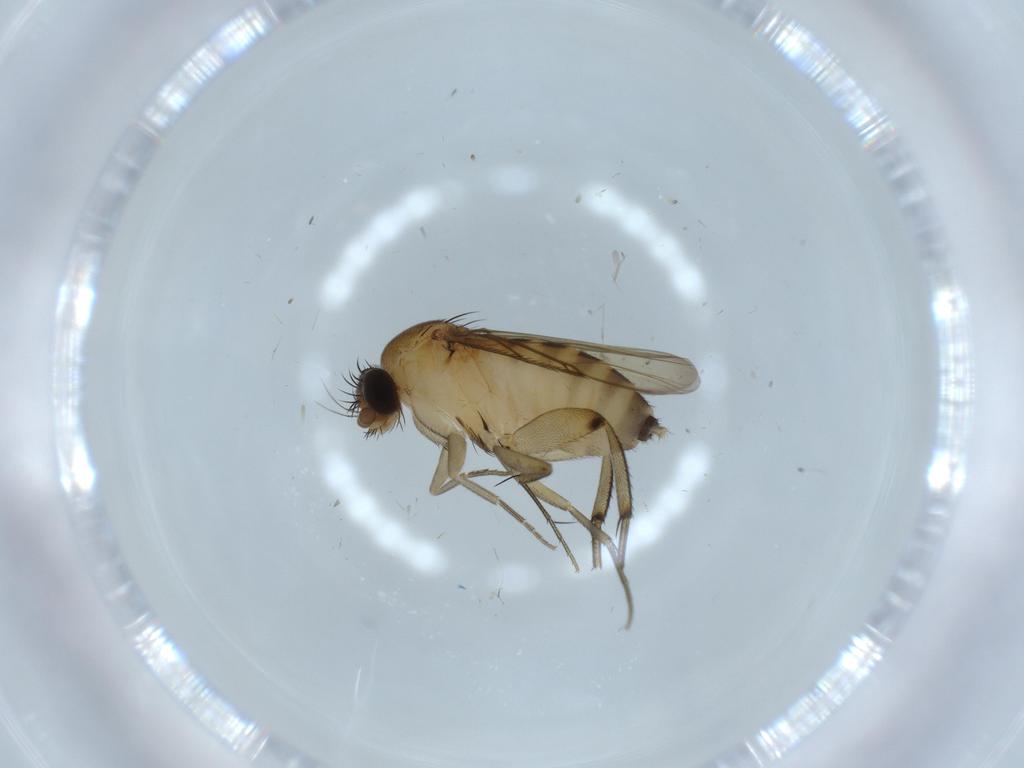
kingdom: Animalia
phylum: Arthropoda
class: Insecta
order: Diptera
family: Phoridae
